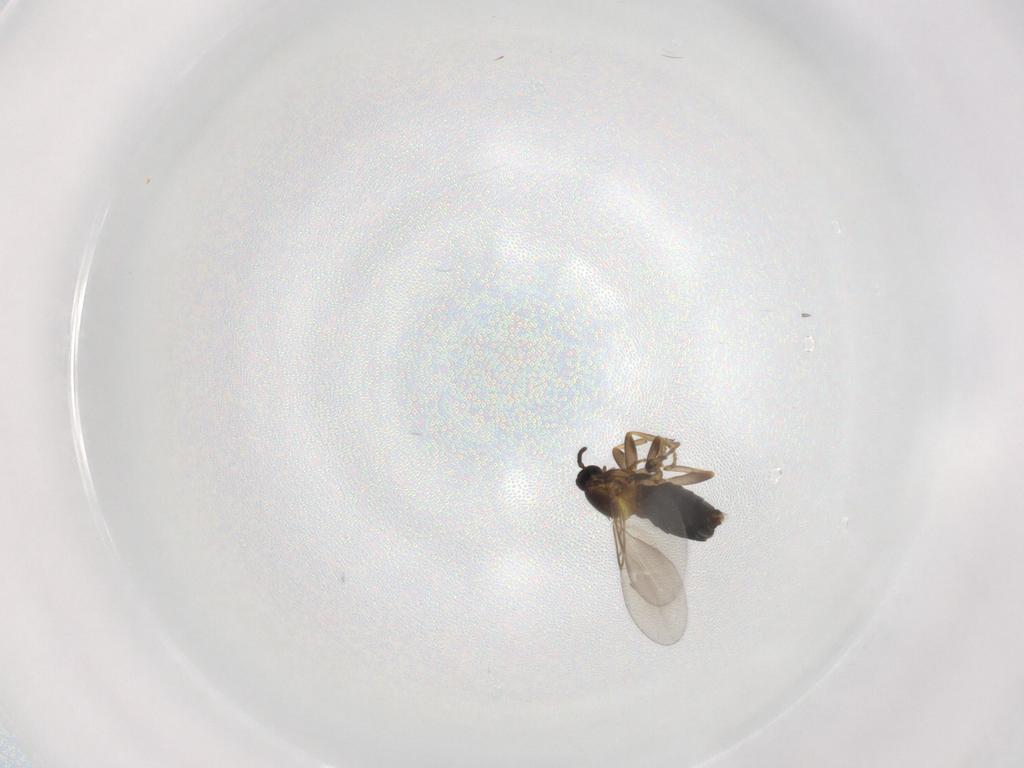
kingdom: Animalia
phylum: Arthropoda
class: Insecta
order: Diptera
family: Scatopsidae
